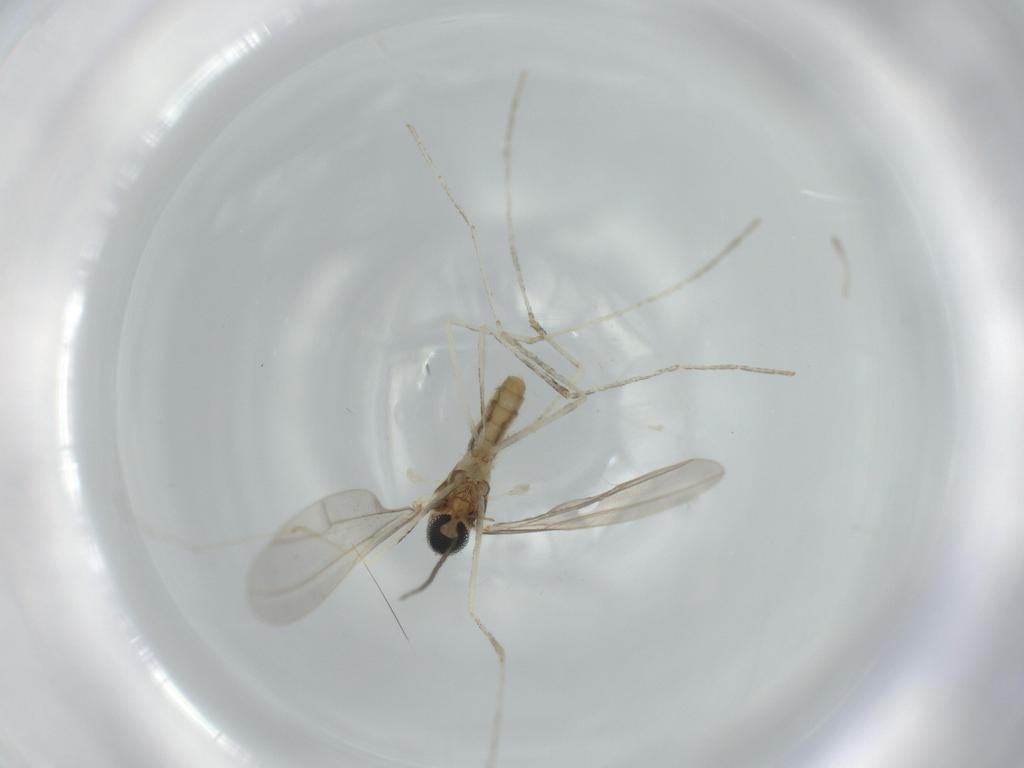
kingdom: Animalia
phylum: Arthropoda
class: Insecta
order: Diptera
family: Cecidomyiidae
